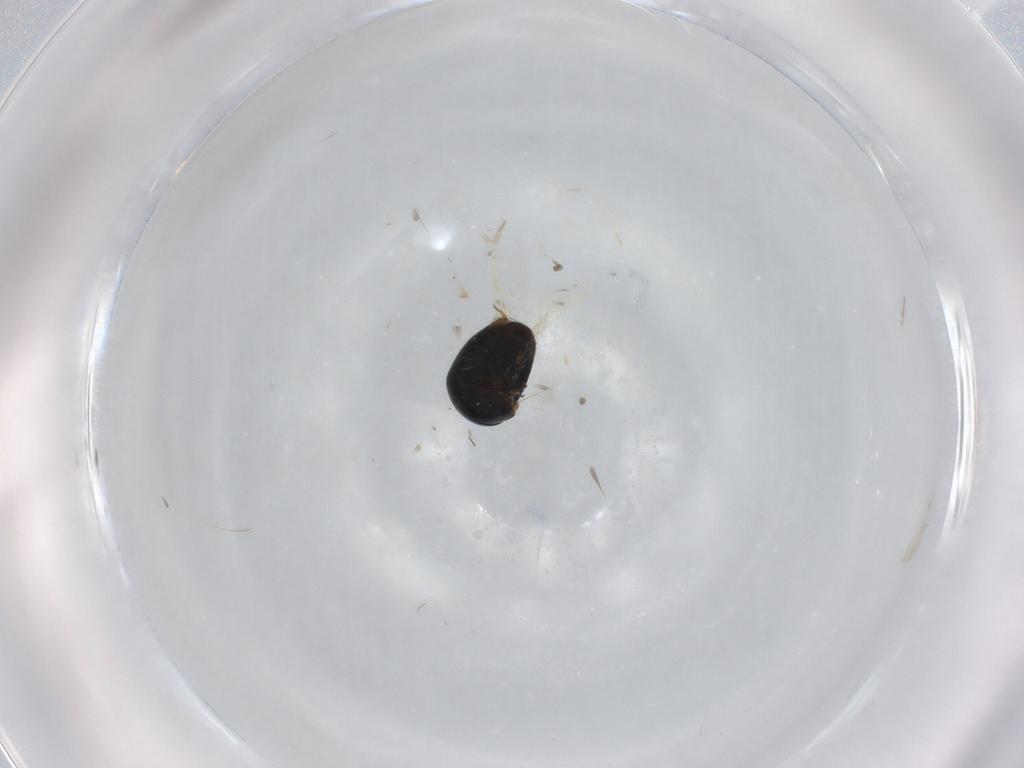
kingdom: Animalia
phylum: Arthropoda
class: Insecta
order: Coleoptera
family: Cybocephalidae
